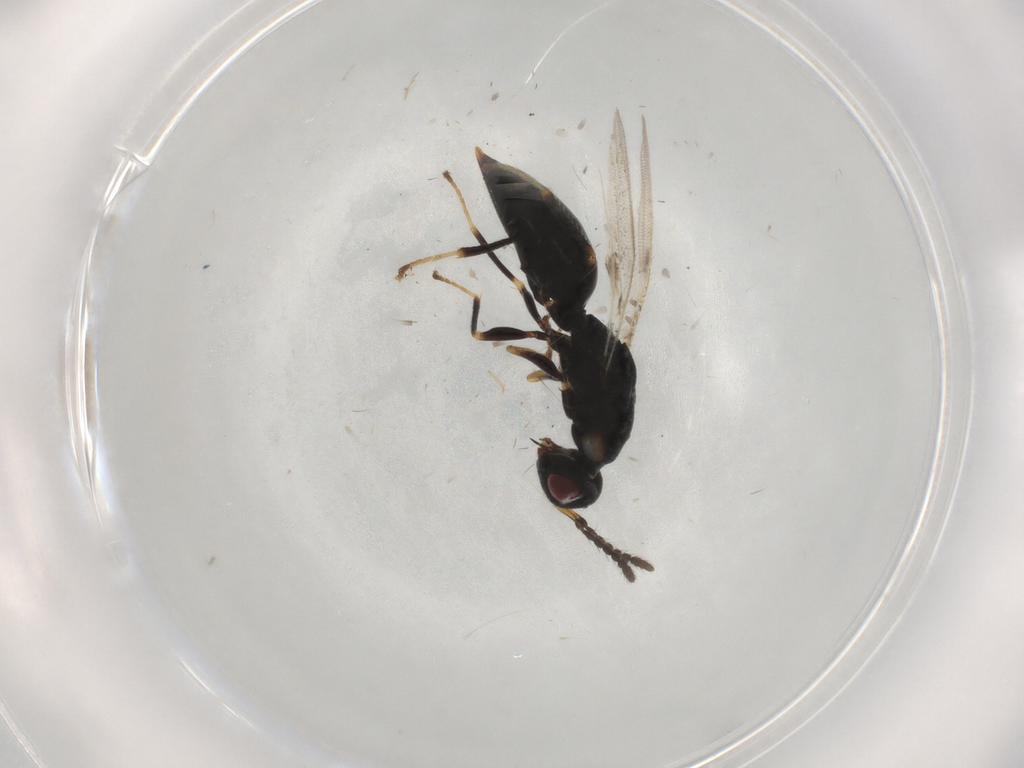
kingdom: Animalia
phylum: Arthropoda
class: Insecta
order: Hymenoptera
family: Eurytomidae
